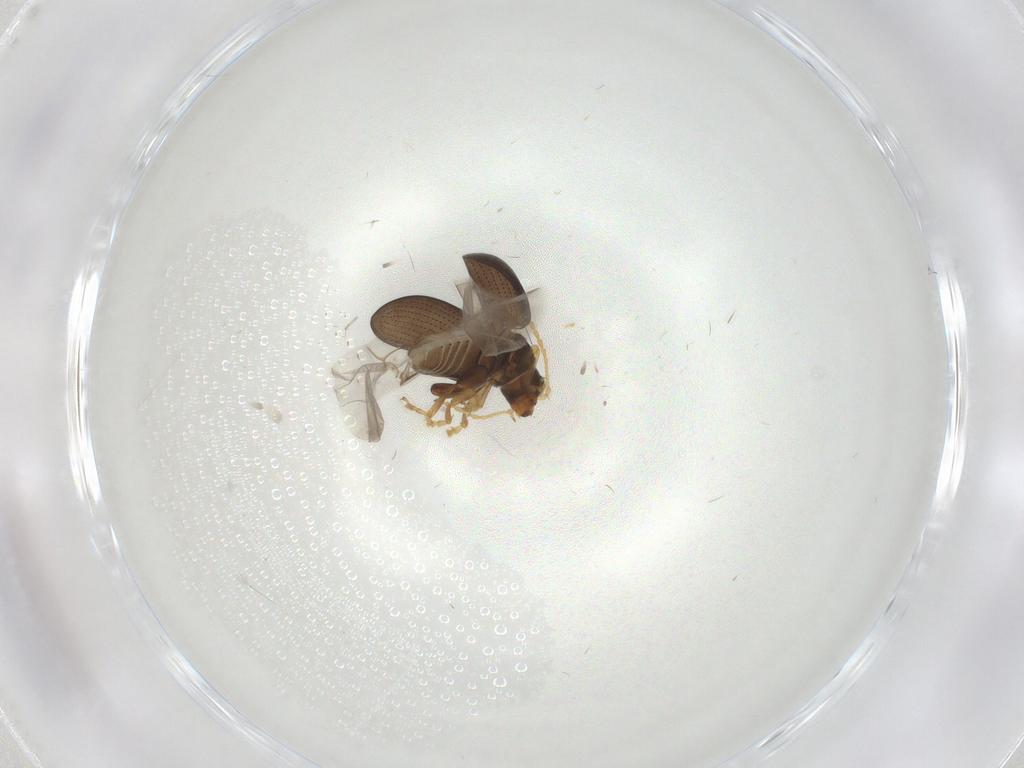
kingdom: Animalia
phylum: Arthropoda
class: Insecta
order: Coleoptera
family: Chrysomelidae
